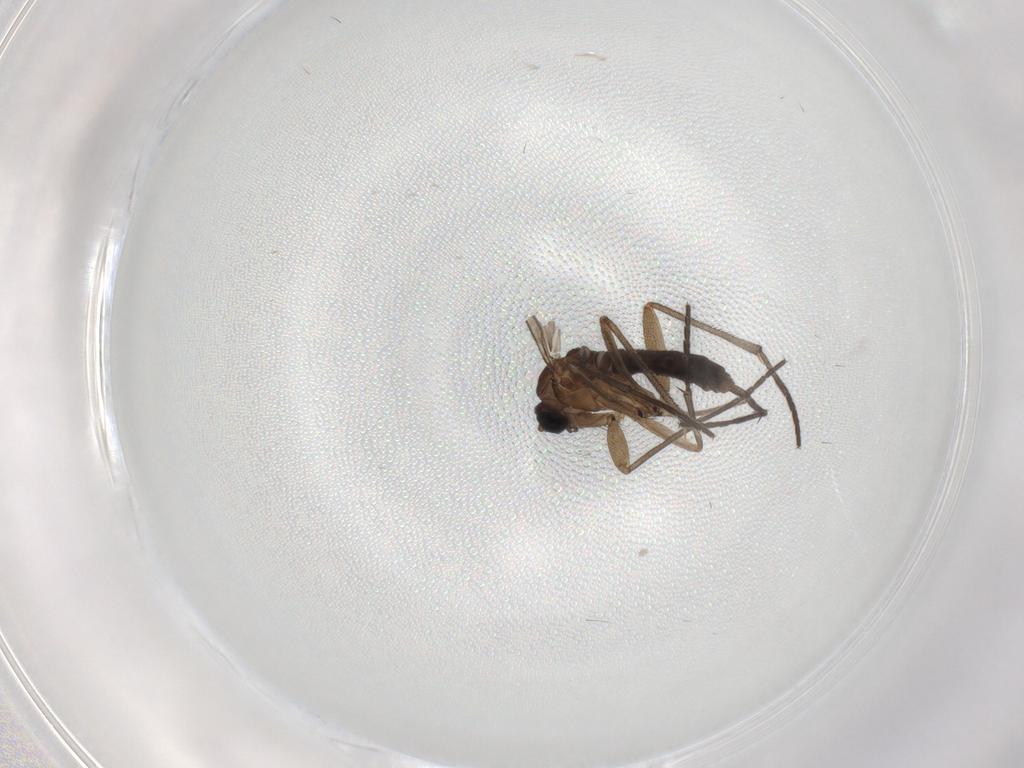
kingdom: Animalia
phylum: Arthropoda
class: Insecta
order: Diptera
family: Sciaridae
